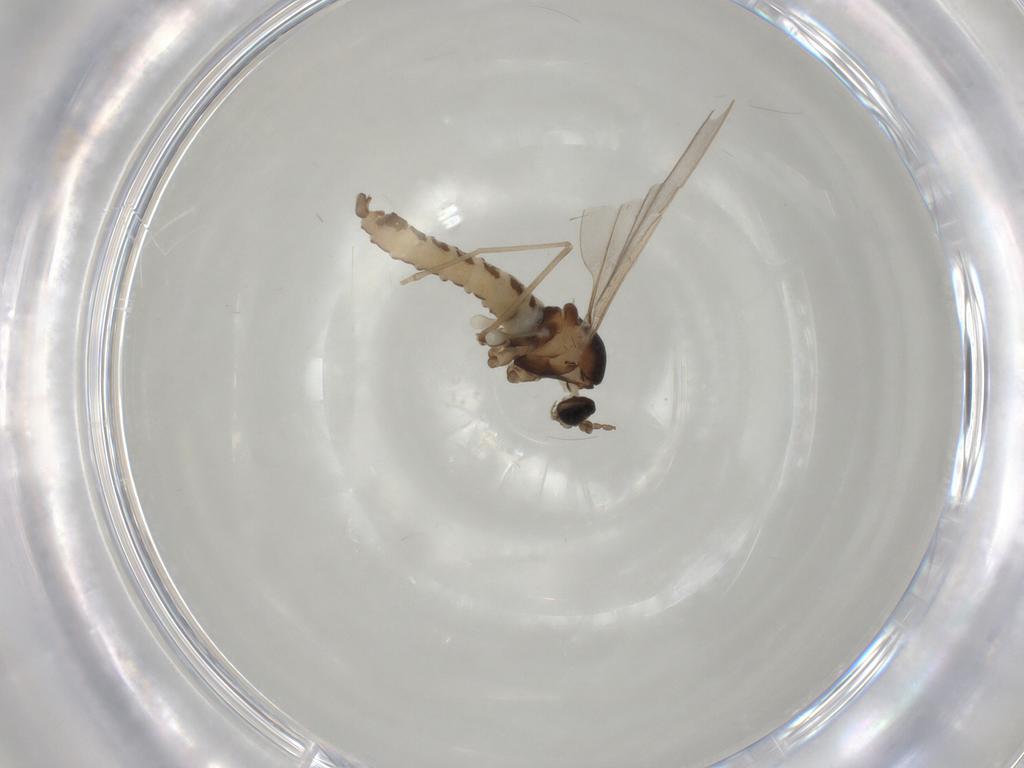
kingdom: Animalia
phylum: Arthropoda
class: Insecta
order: Diptera
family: Cecidomyiidae
